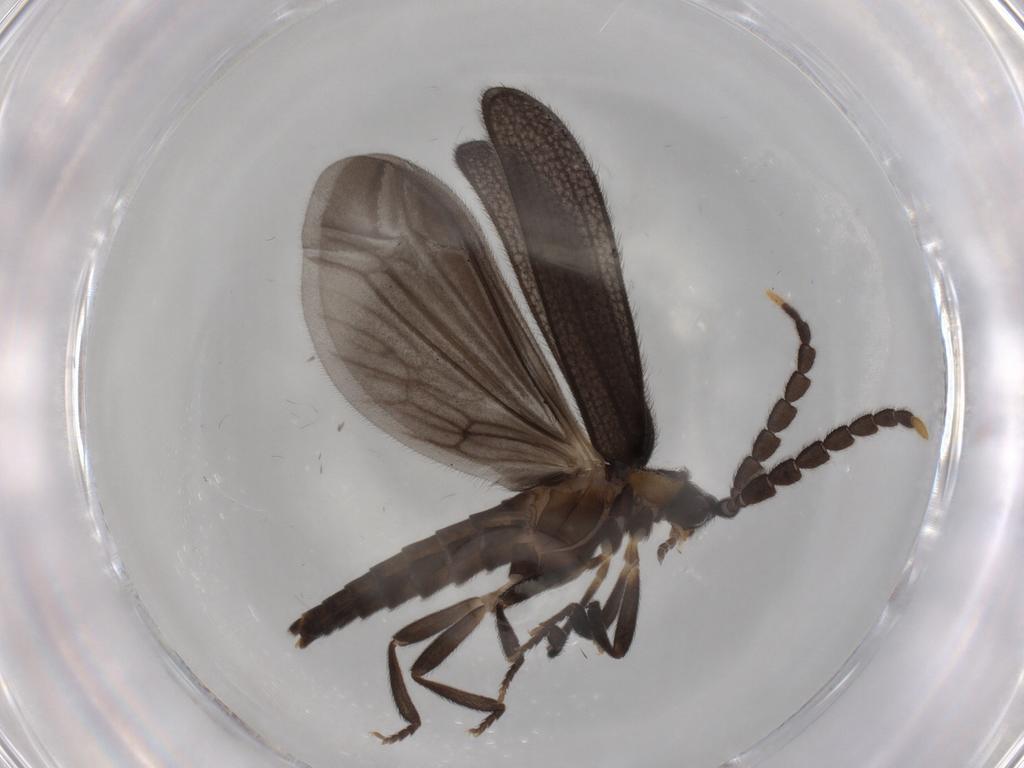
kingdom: Animalia
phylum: Arthropoda
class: Insecta
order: Coleoptera
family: Lycidae
